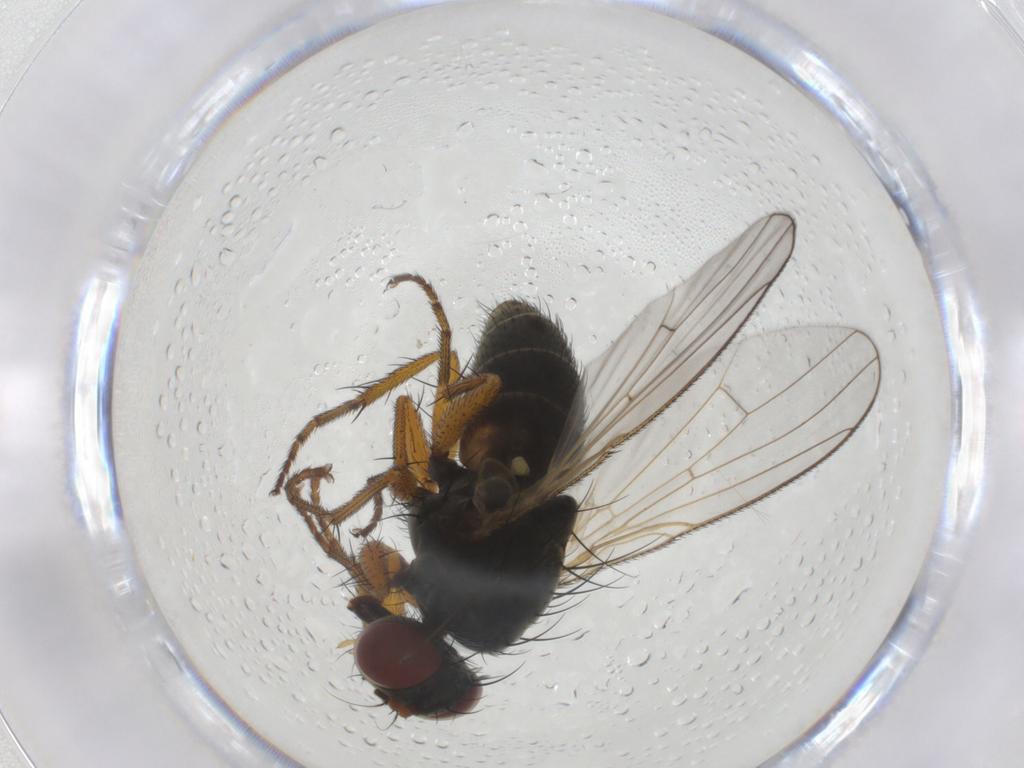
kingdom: Animalia
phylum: Arthropoda
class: Insecta
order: Diptera
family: Muscidae
